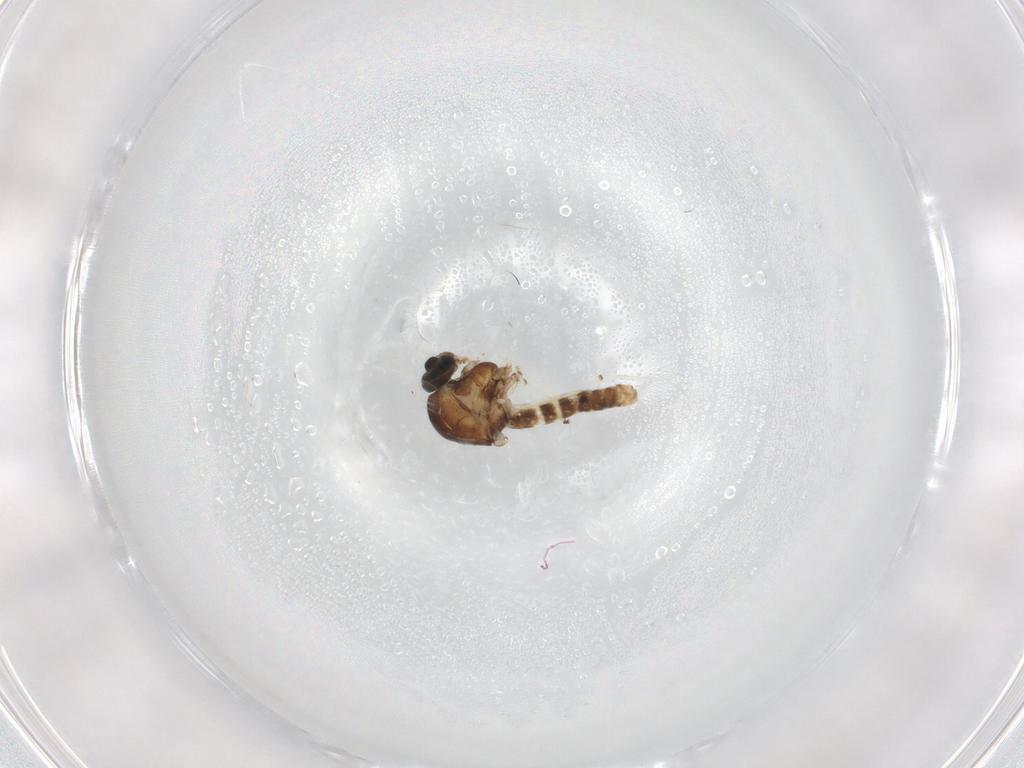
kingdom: Animalia
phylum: Arthropoda
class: Insecta
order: Diptera
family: Ceratopogonidae
